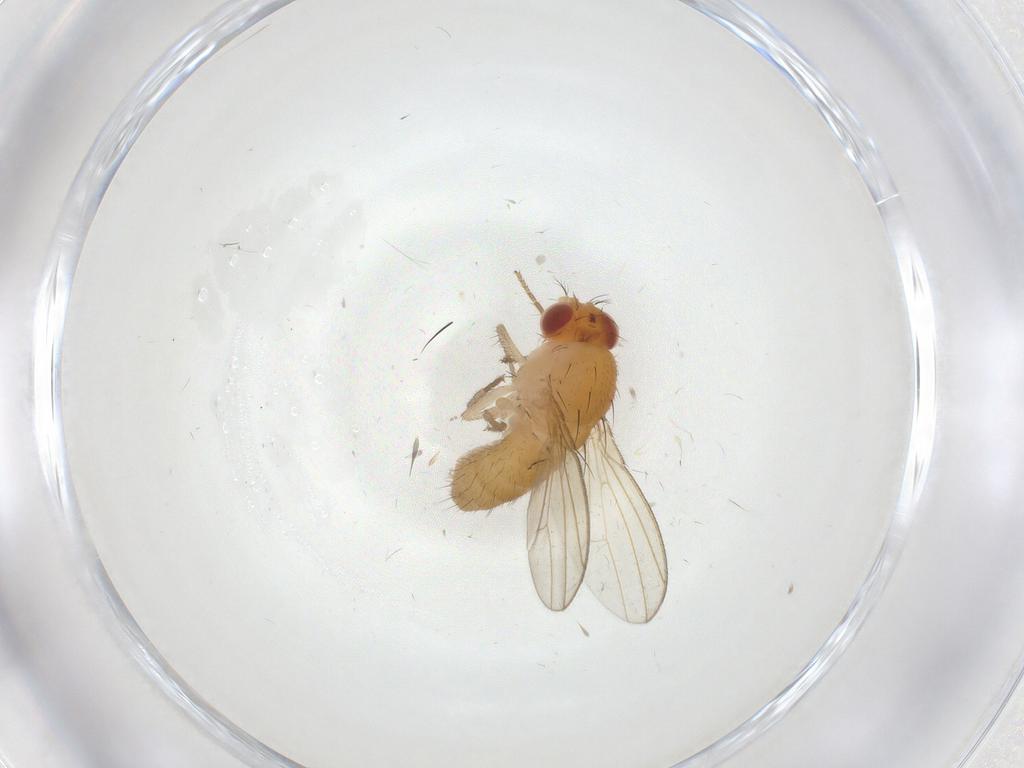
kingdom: Animalia
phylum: Arthropoda
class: Insecta
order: Diptera
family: Drosophilidae
